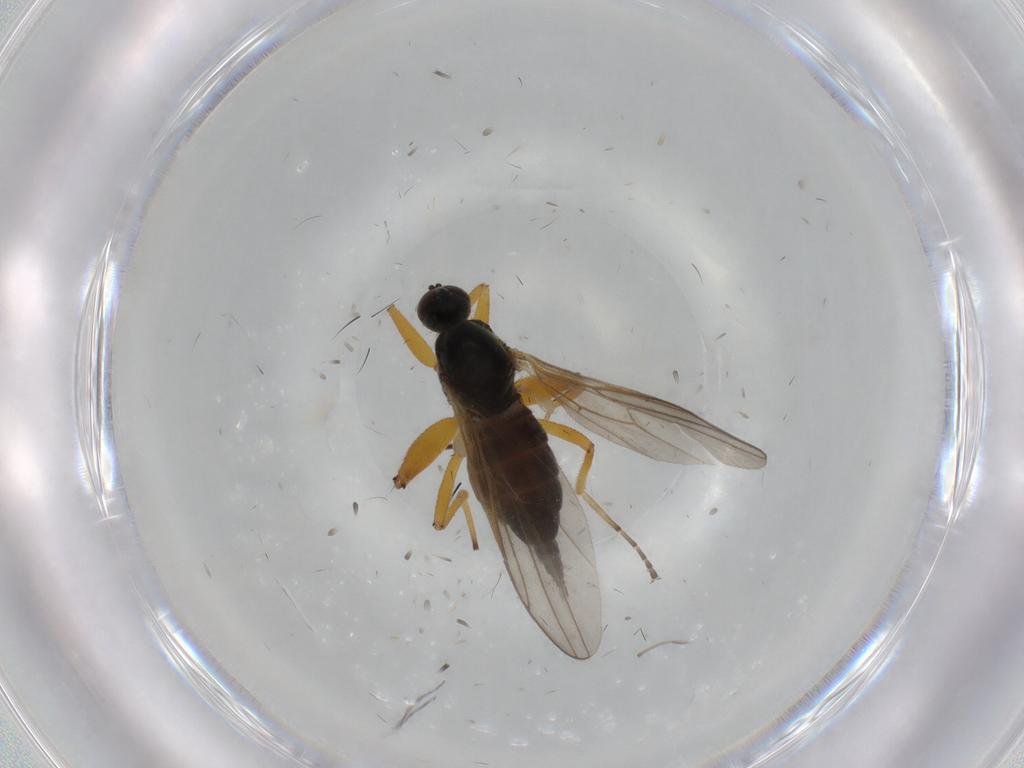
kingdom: Animalia
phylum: Arthropoda
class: Insecta
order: Diptera
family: Hybotidae
